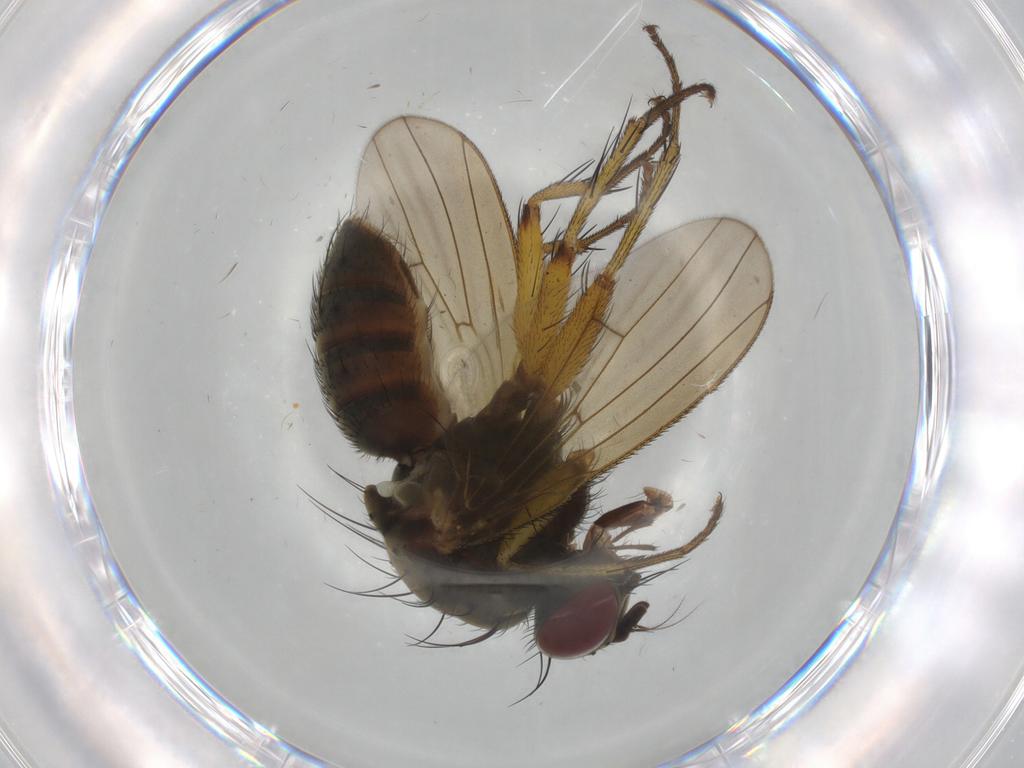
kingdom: Animalia
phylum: Arthropoda
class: Insecta
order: Diptera
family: Muscidae
